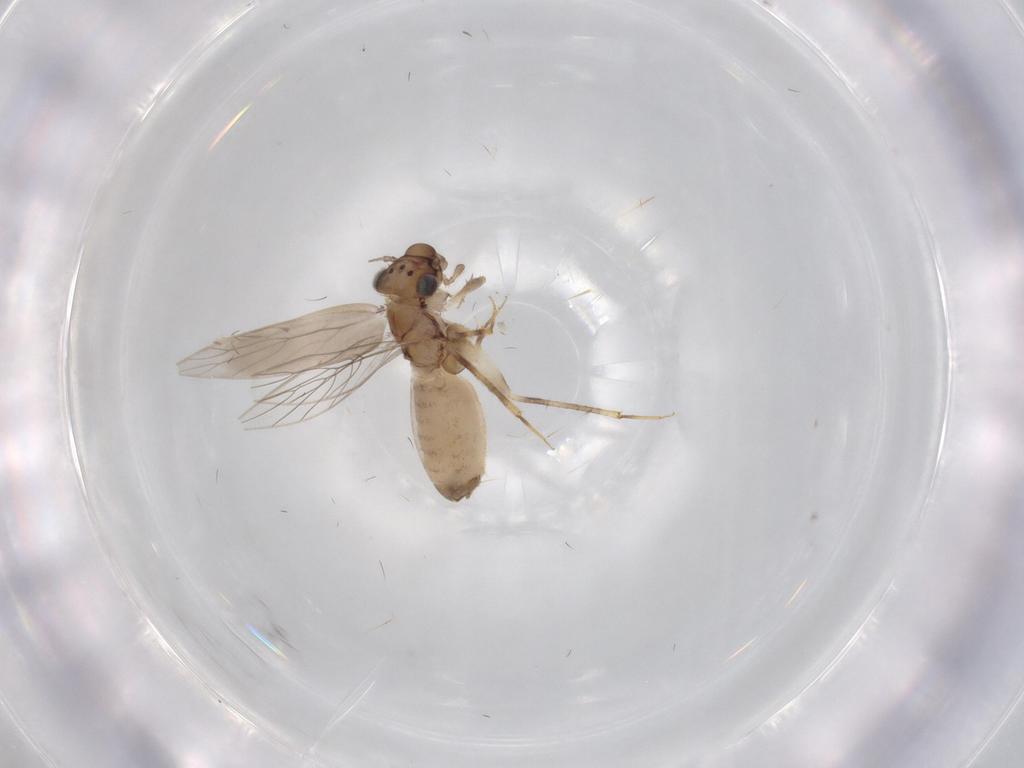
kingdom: Animalia
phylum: Arthropoda
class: Insecta
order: Psocodea
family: Lepidopsocidae
